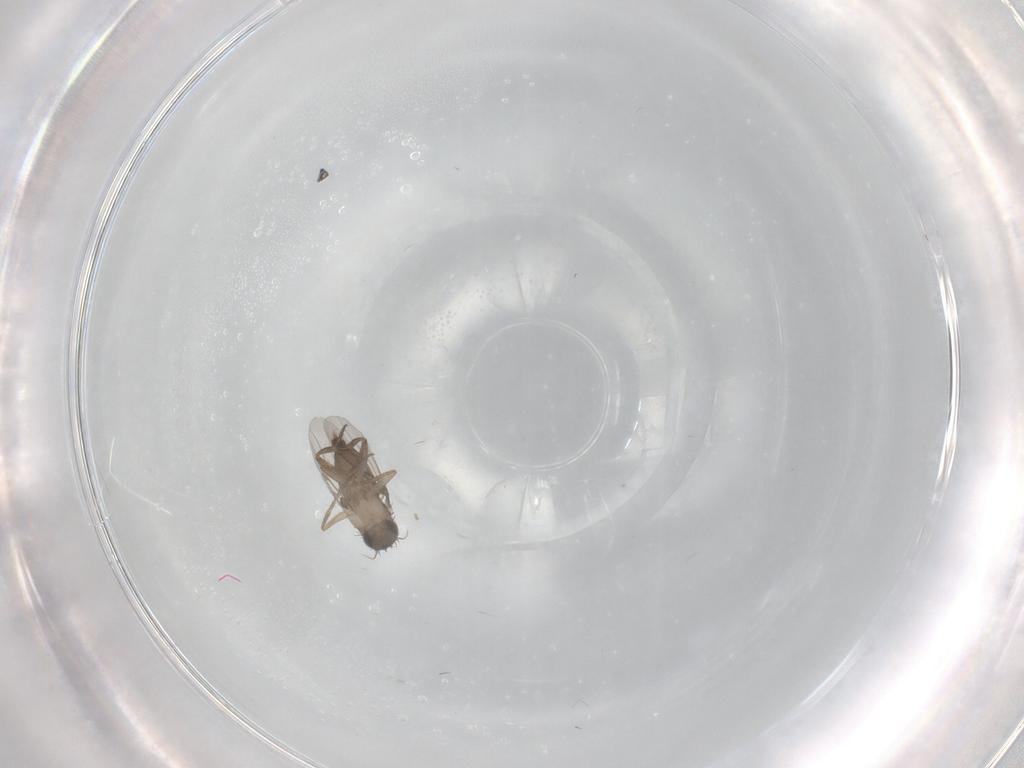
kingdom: Animalia
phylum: Arthropoda
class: Insecta
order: Diptera
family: Phoridae
